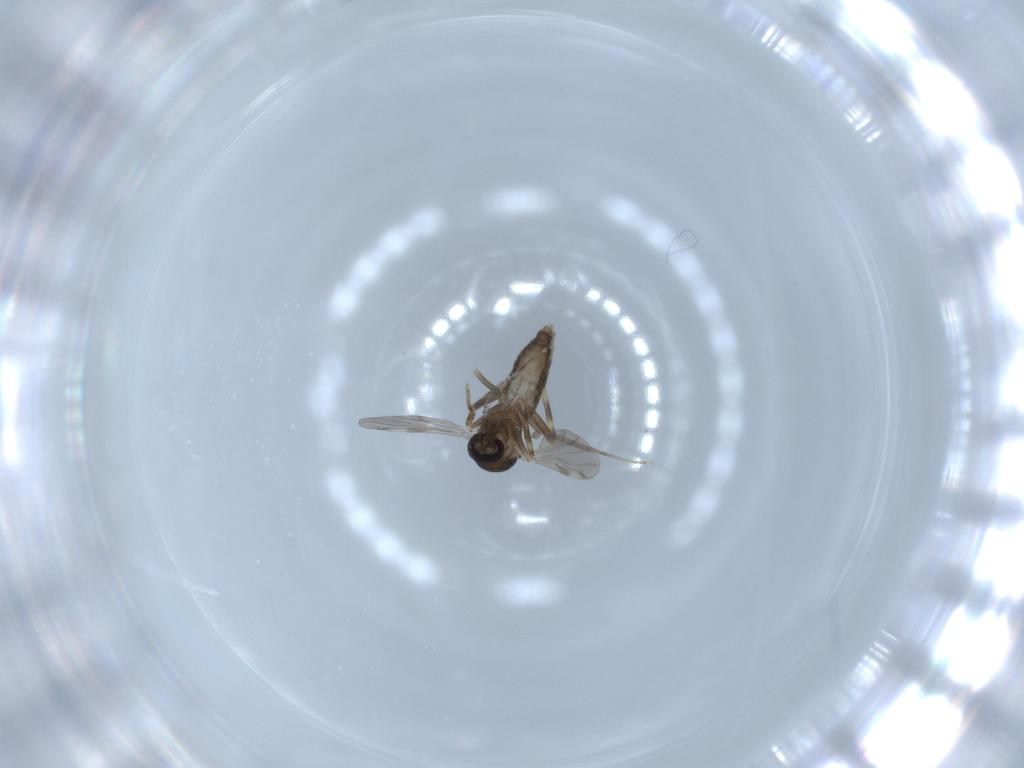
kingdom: Animalia
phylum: Arthropoda
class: Insecta
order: Diptera
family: Ceratopogonidae
